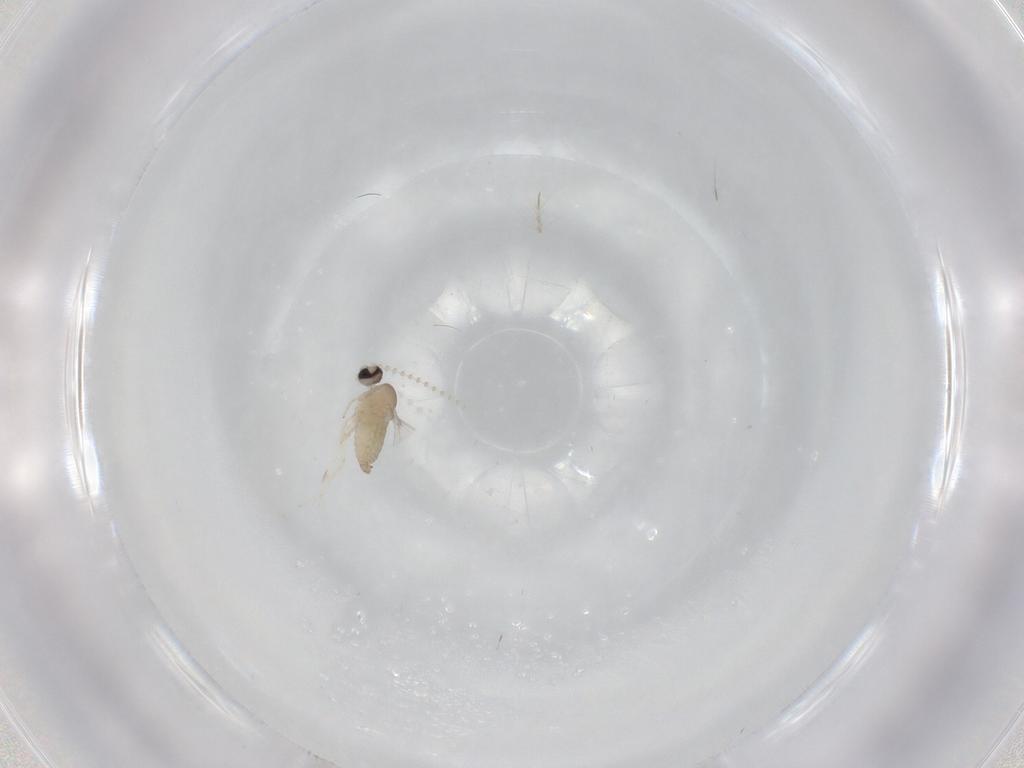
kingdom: Animalia
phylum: Arthropoda
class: Insecta
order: Diptera
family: Cecidomyiidae
